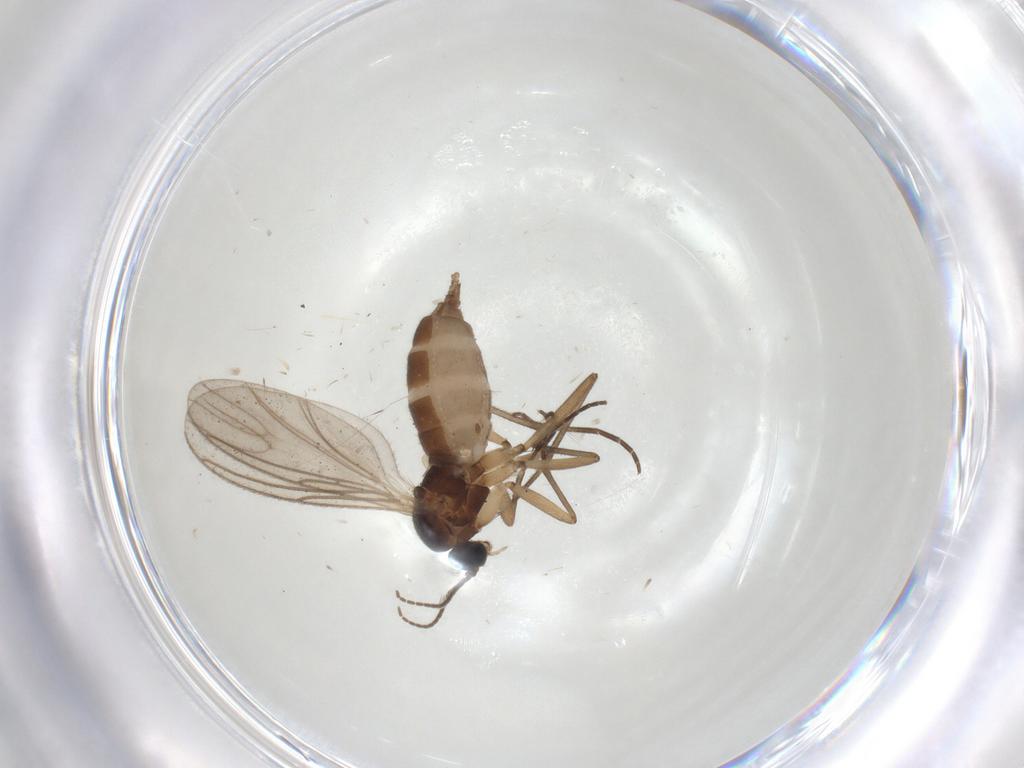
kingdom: Animalia
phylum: Arthropoda
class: Insecta
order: Diptera
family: Sciaridae
